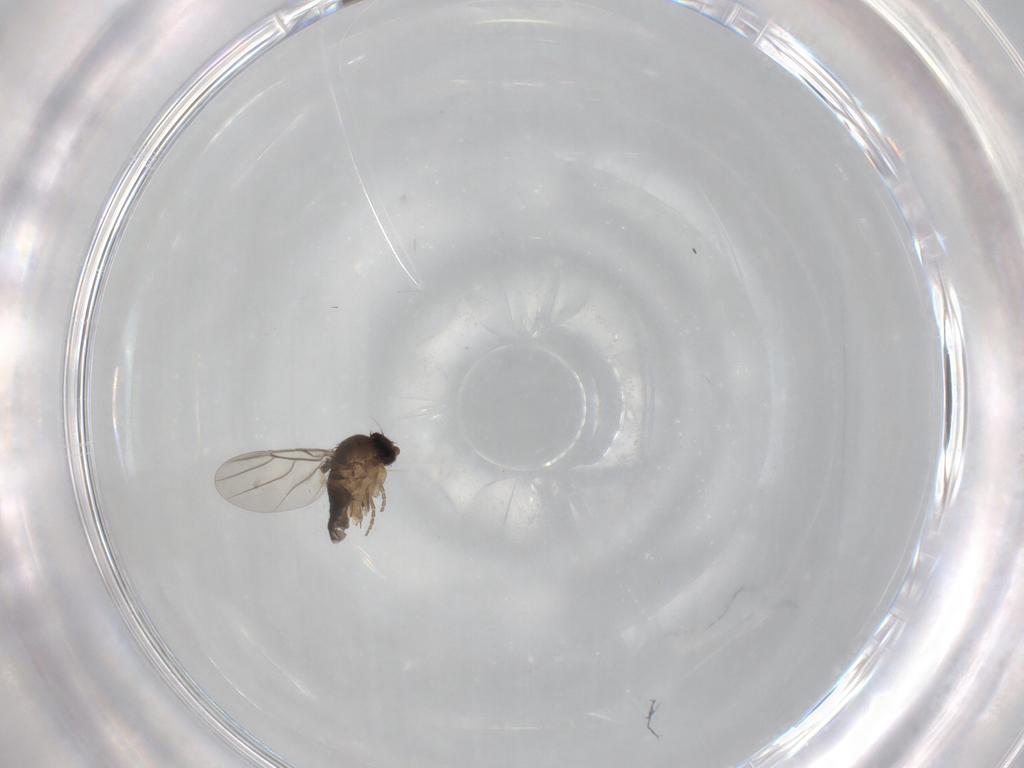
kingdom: Animalia
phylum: Arthropoda
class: Insecta
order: Diptera
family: Phoridae
